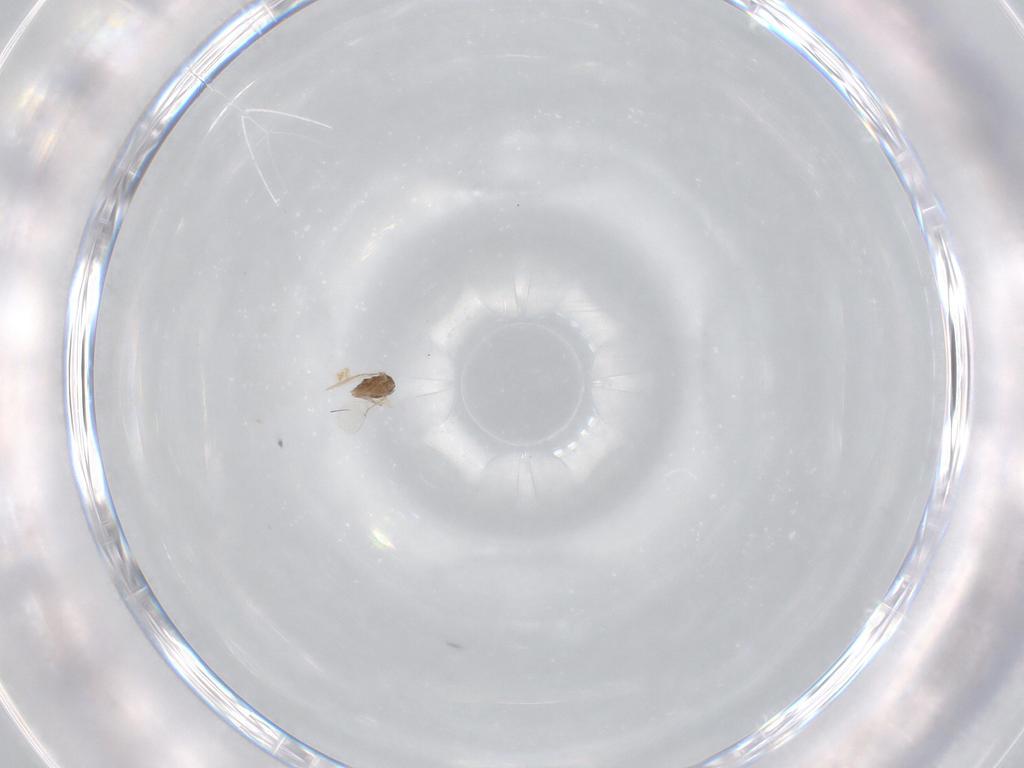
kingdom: Animalia
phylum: Arthropoda
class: Insecta
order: Hymenoptera
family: Encyrtidae
